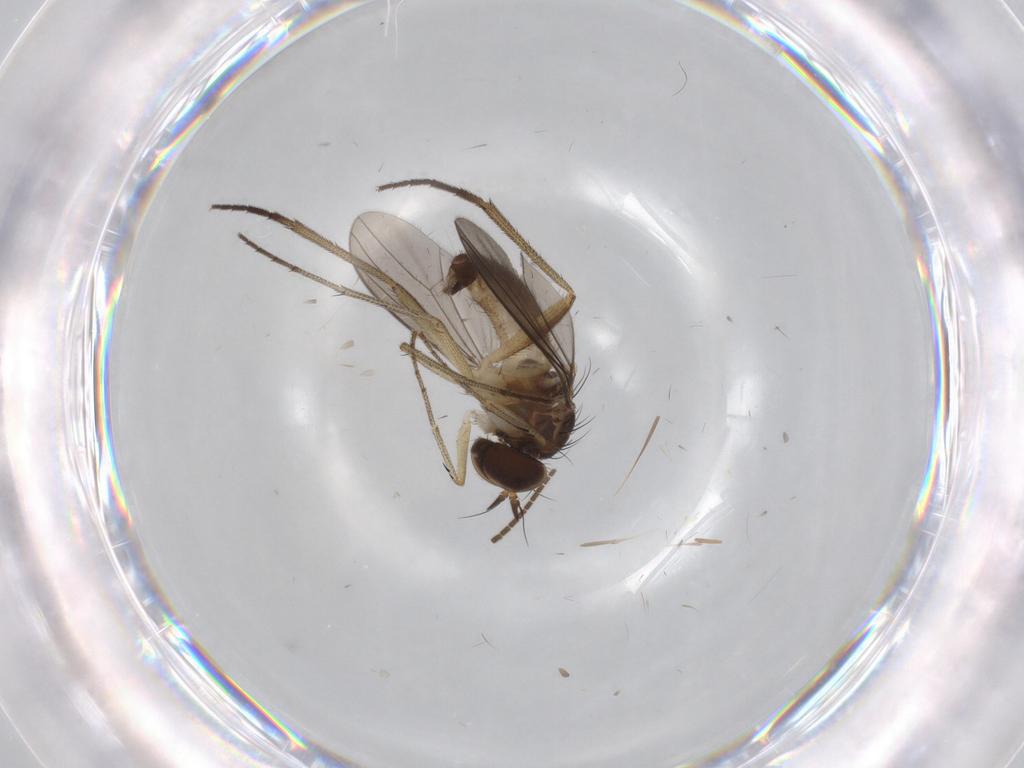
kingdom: Animalia
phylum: Arthropoda
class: Insecta
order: Diptera
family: Dolichopodidae
